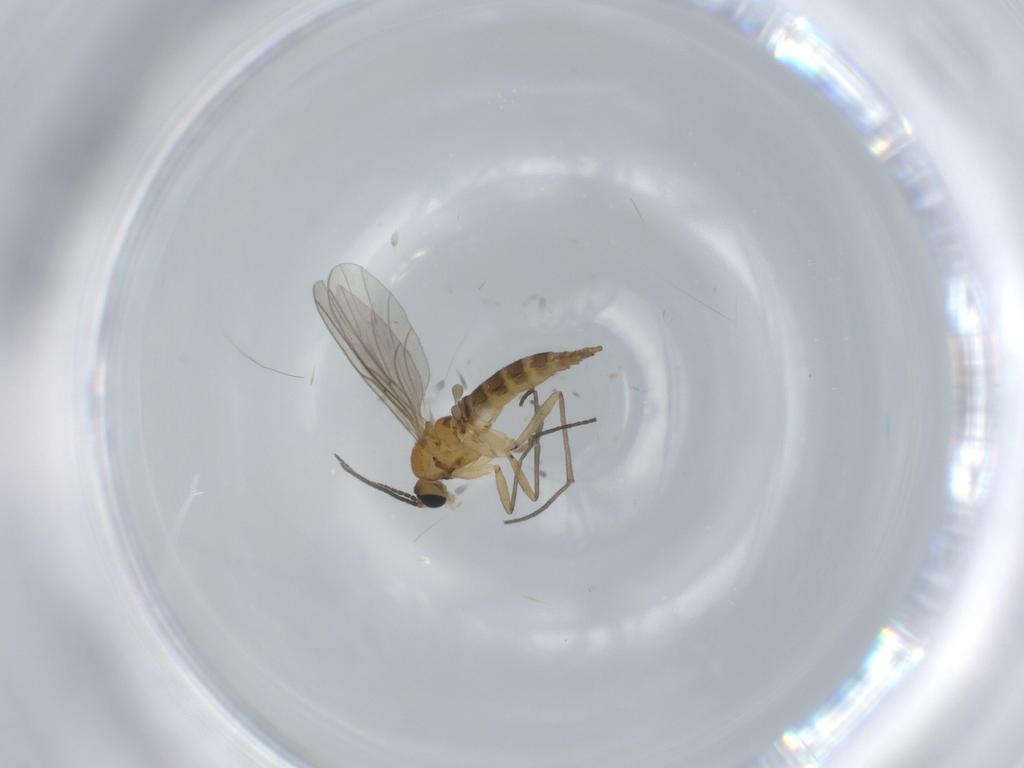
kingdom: Animalia
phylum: Arthropoda
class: Insecta
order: Diptera
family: Dolichopodidae
